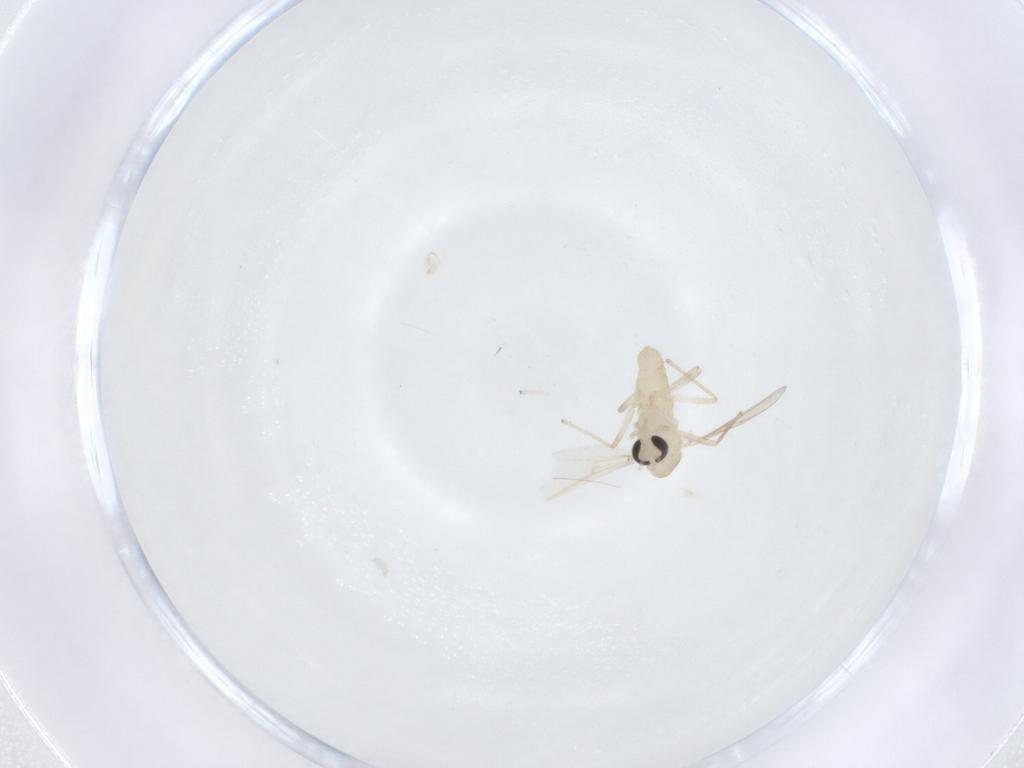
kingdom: Animalia
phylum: Arthropoda
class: Insecta
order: Diptera
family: Chironomidae
